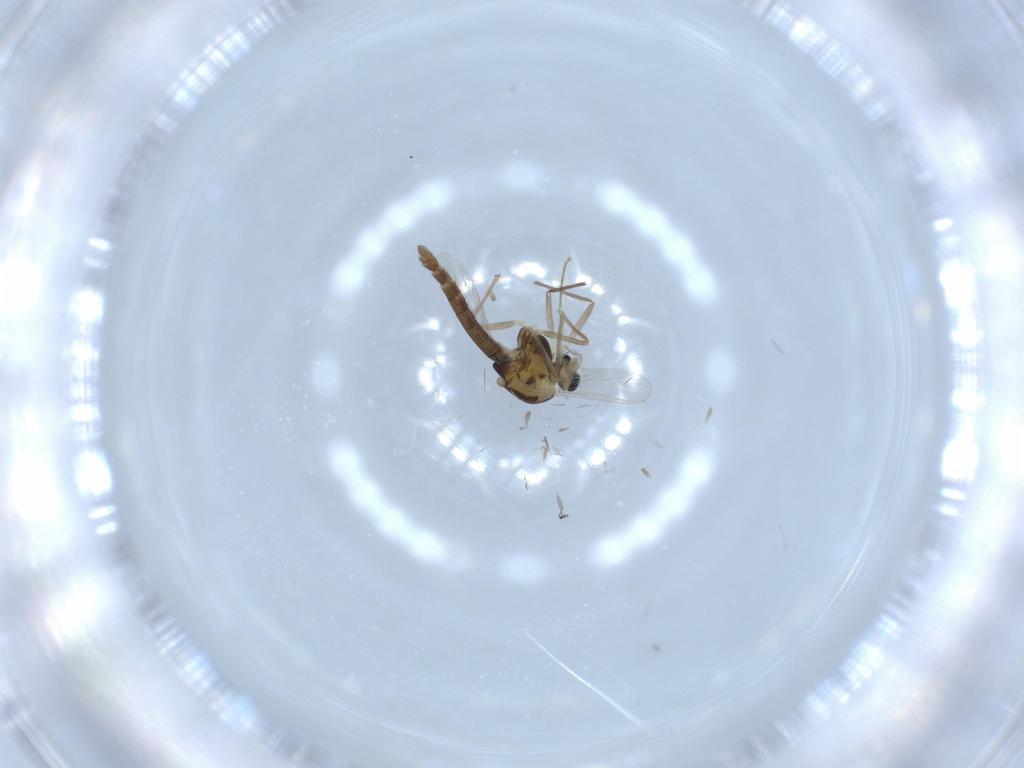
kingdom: Animalia
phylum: Arthropoda
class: Insecta
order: Diptera
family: Chironomidae
